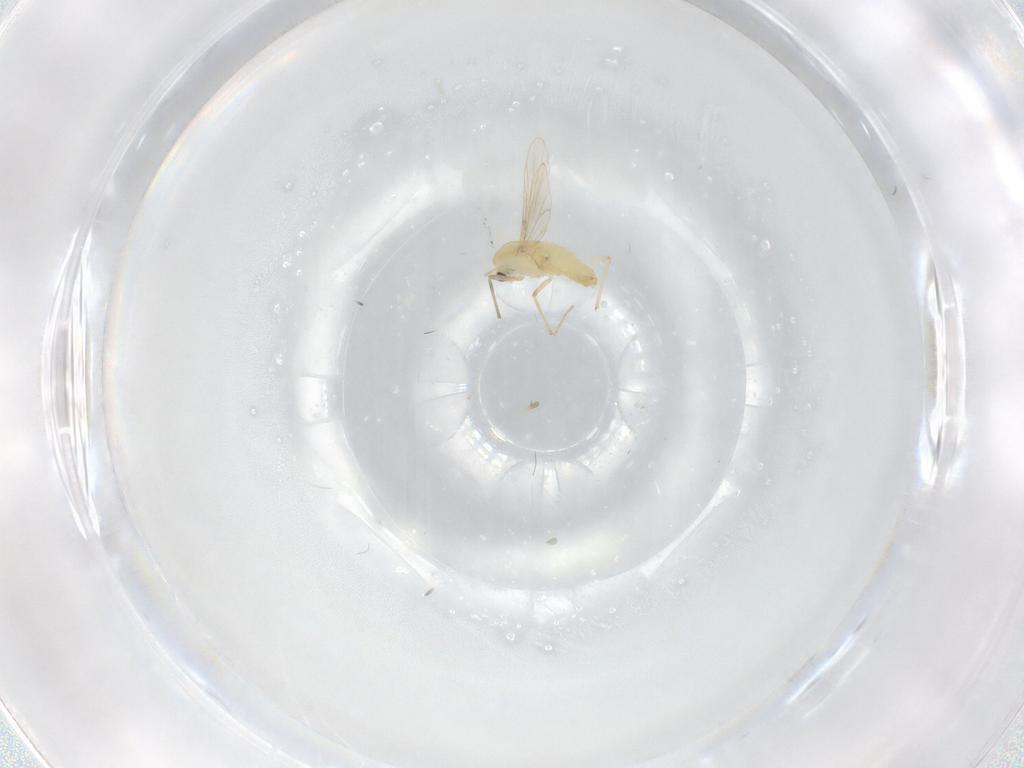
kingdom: Animalia
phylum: Arthropoda
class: Insecta
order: Diptera
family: Chironomidae
